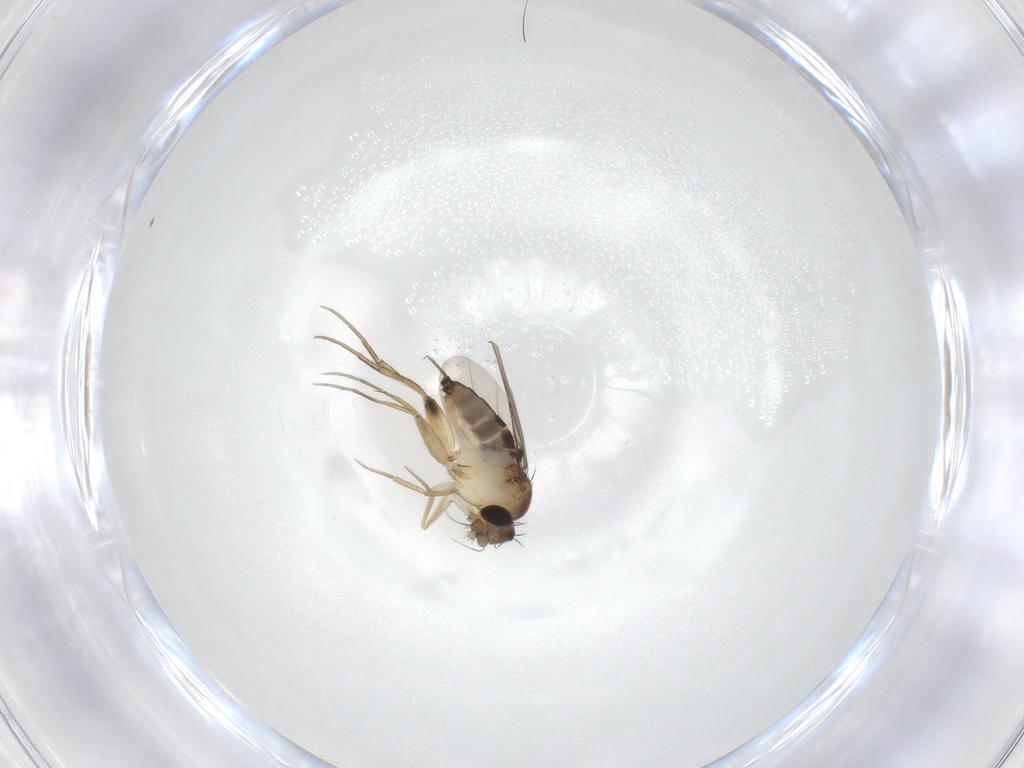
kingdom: Animalia
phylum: Arthropoda
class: Insecta
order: Diptera
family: Phoridae
